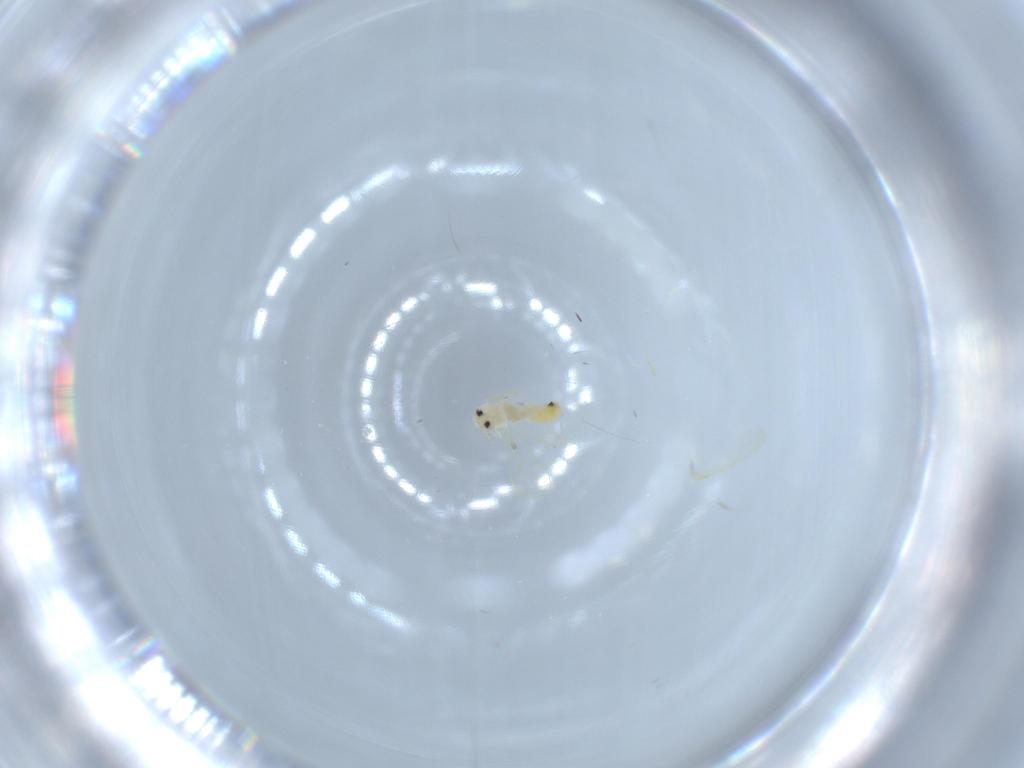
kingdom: Animalia
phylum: Arthropoda
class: Insecta
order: Hemiptera
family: Aleyrodidae
